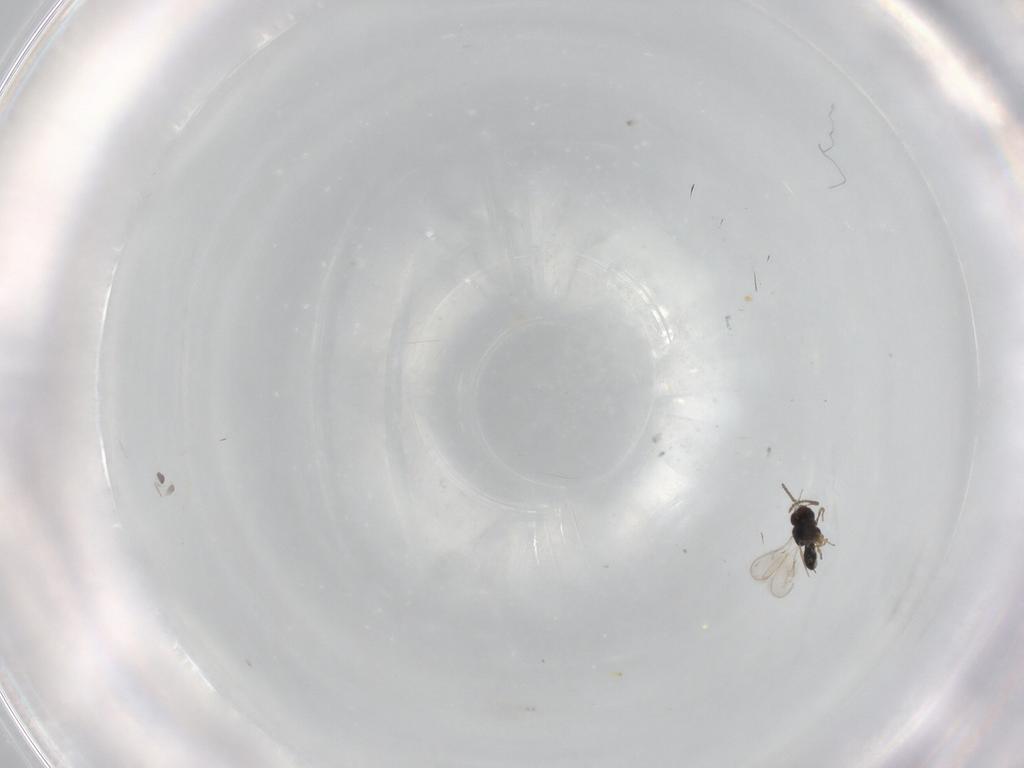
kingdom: Animalia
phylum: Arthropoda
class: Insecta
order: Hymenoptera
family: Scelionidae
